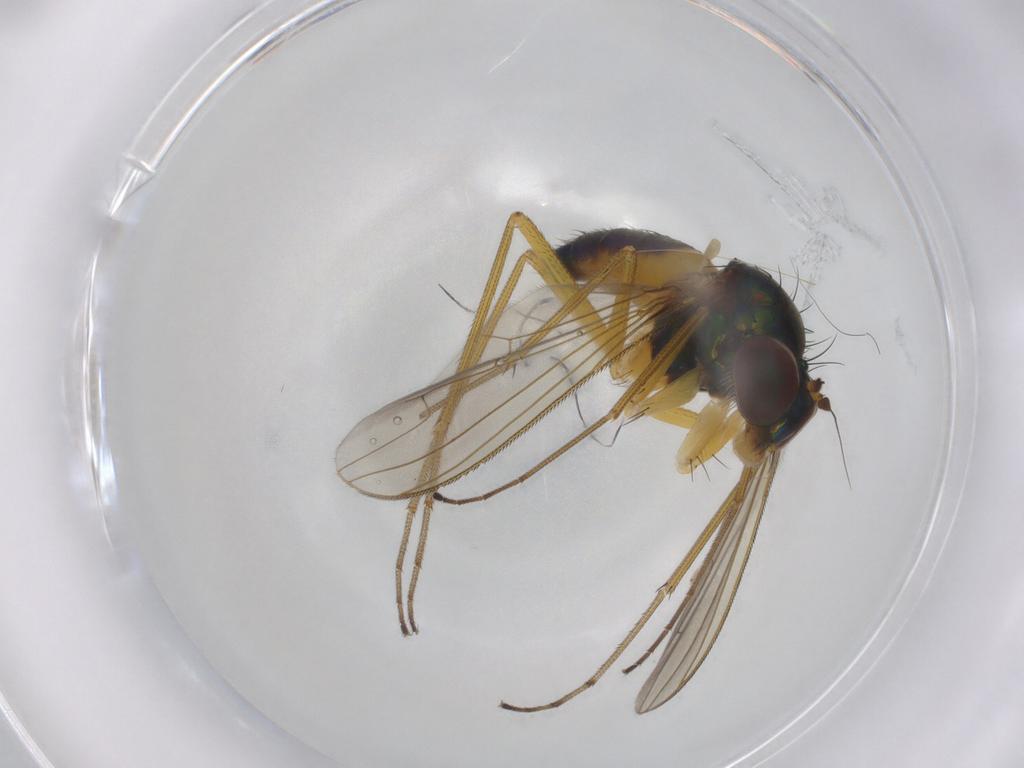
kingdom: Animalia
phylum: Arthropoda
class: Insecta
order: Diptera
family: Dolichopodidae
